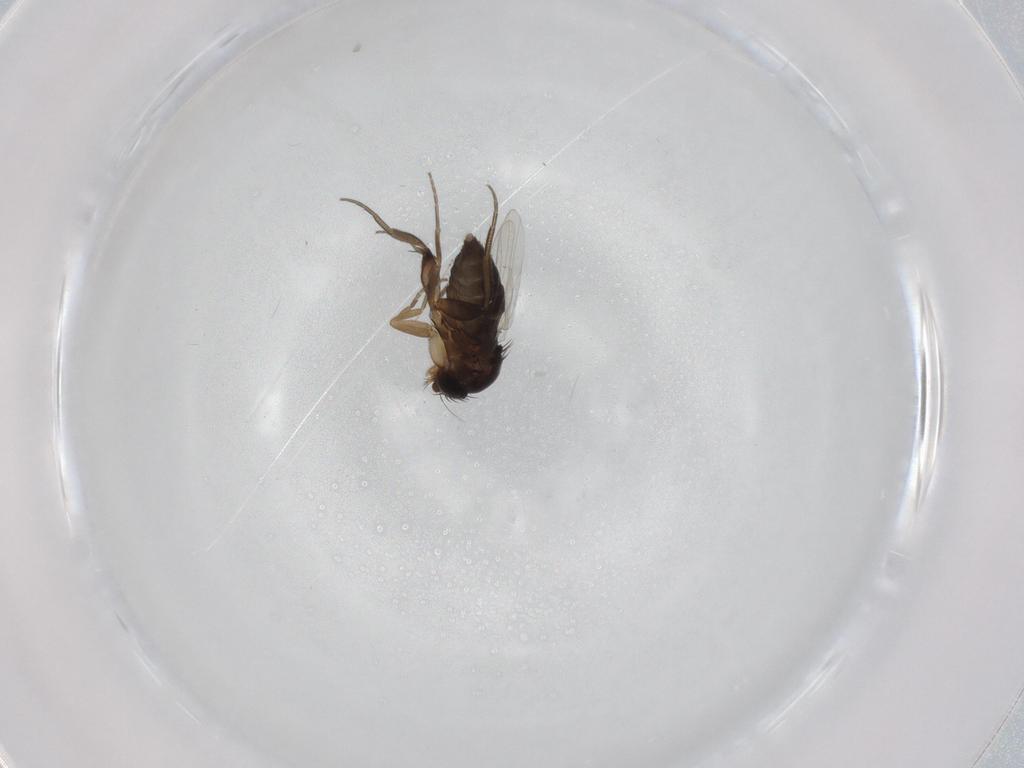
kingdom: Animalia
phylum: Arthropoda
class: Insecta
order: Diptera
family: Phoridae
